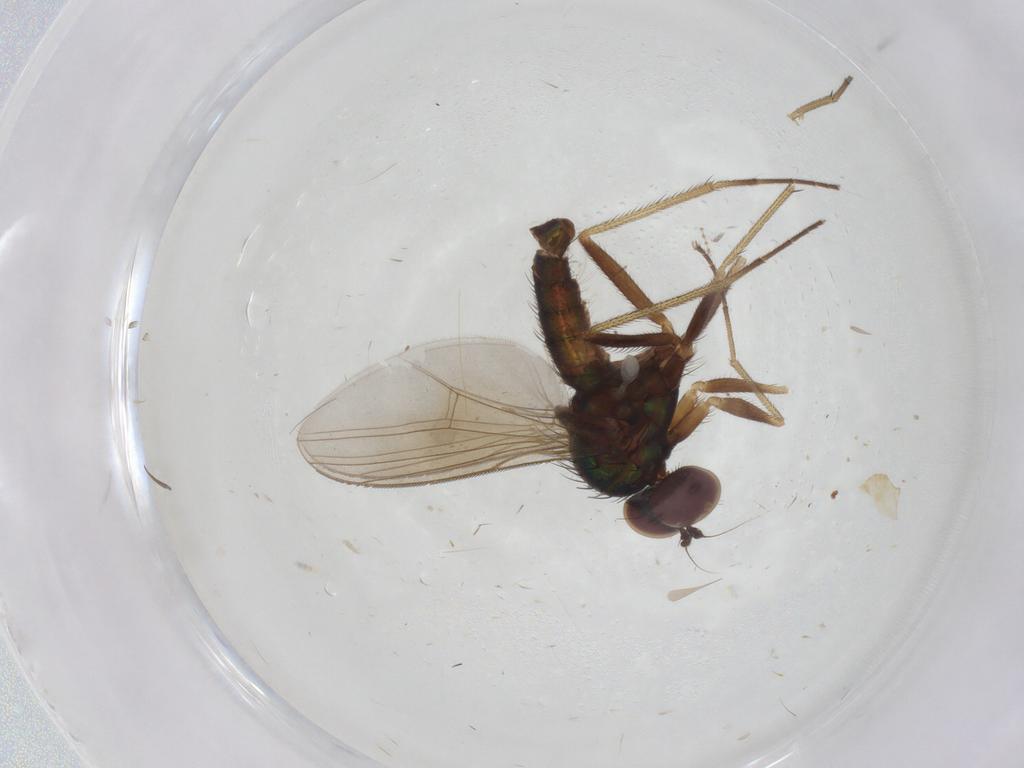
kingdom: Animalia
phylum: Arthropoda
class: Insecta
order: Diptera
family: Dolichopodidae
